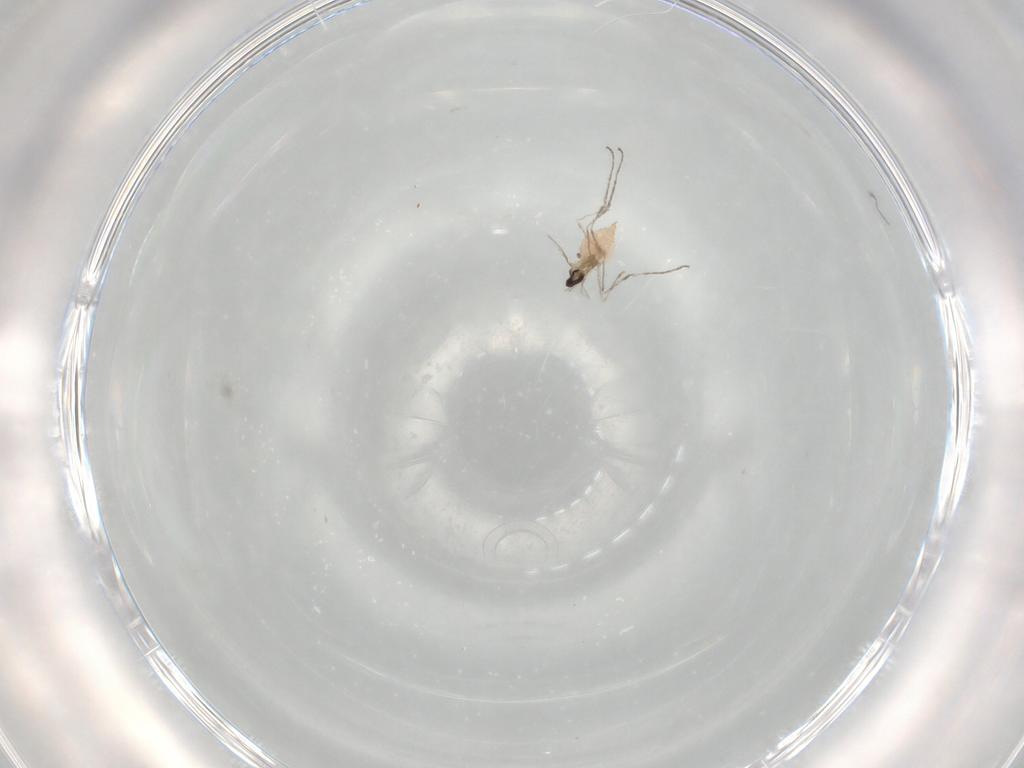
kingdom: Animalia
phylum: Arthropoda
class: Insecta
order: Diptera
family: Cecidomyiidae
